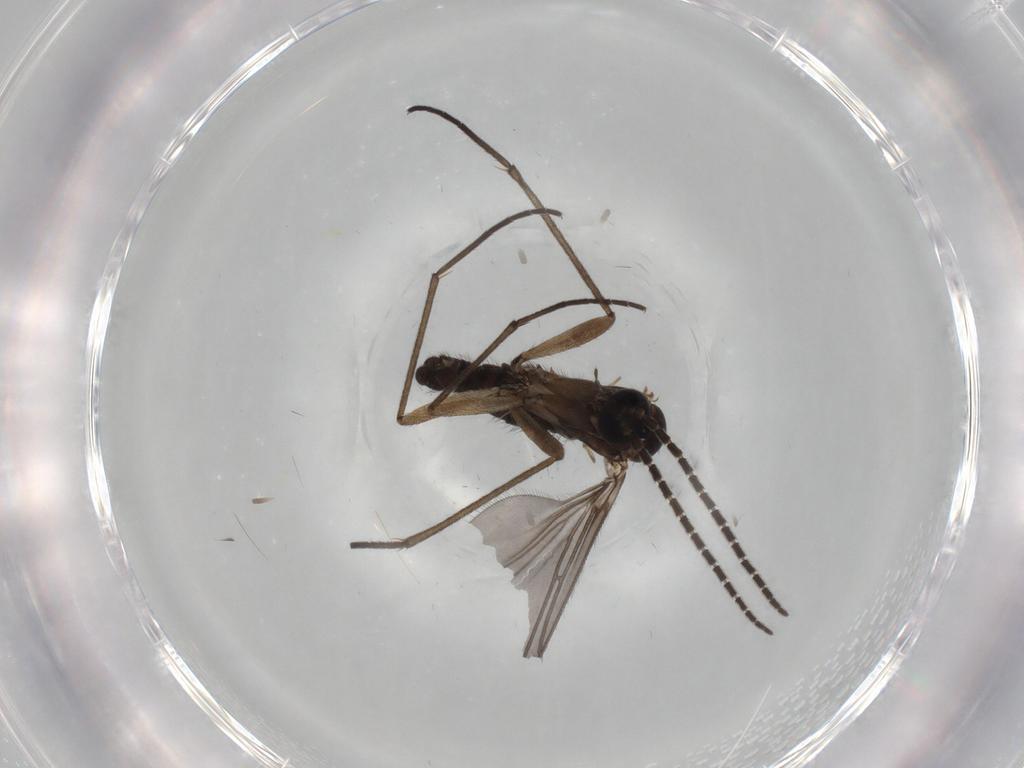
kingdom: Animalia
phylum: Arthropoda
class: Insecta
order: Diptera
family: Sciaridae
